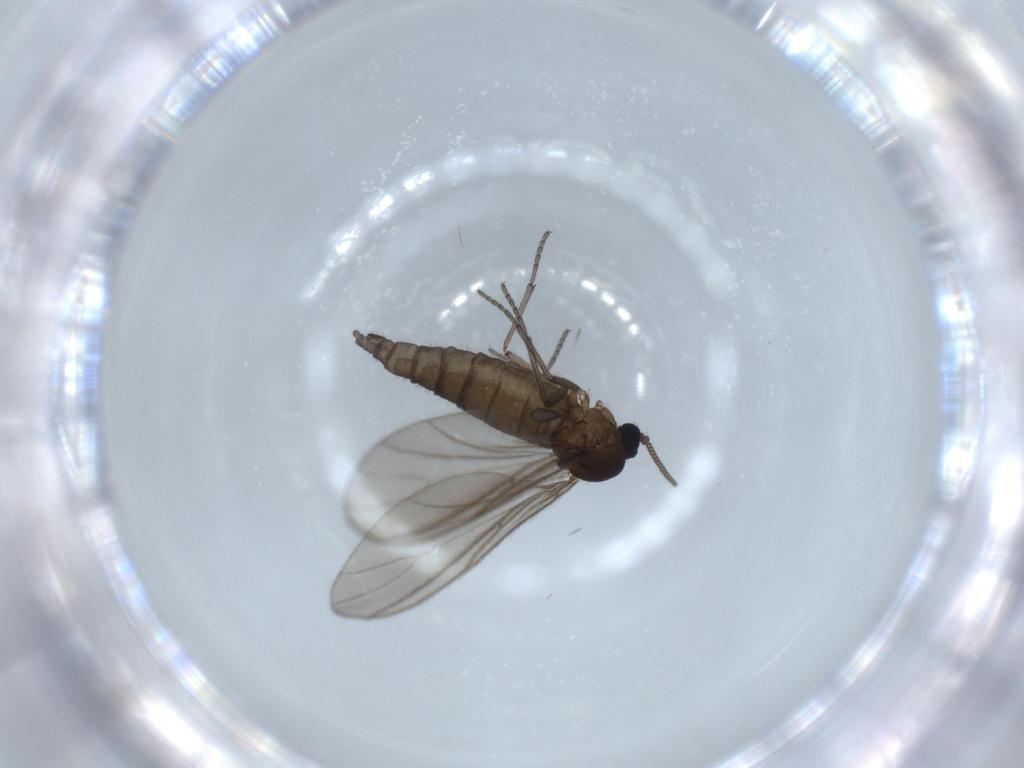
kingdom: Animalia
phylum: Arthropoda
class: Insecta
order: Diptera
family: Sciaridae
